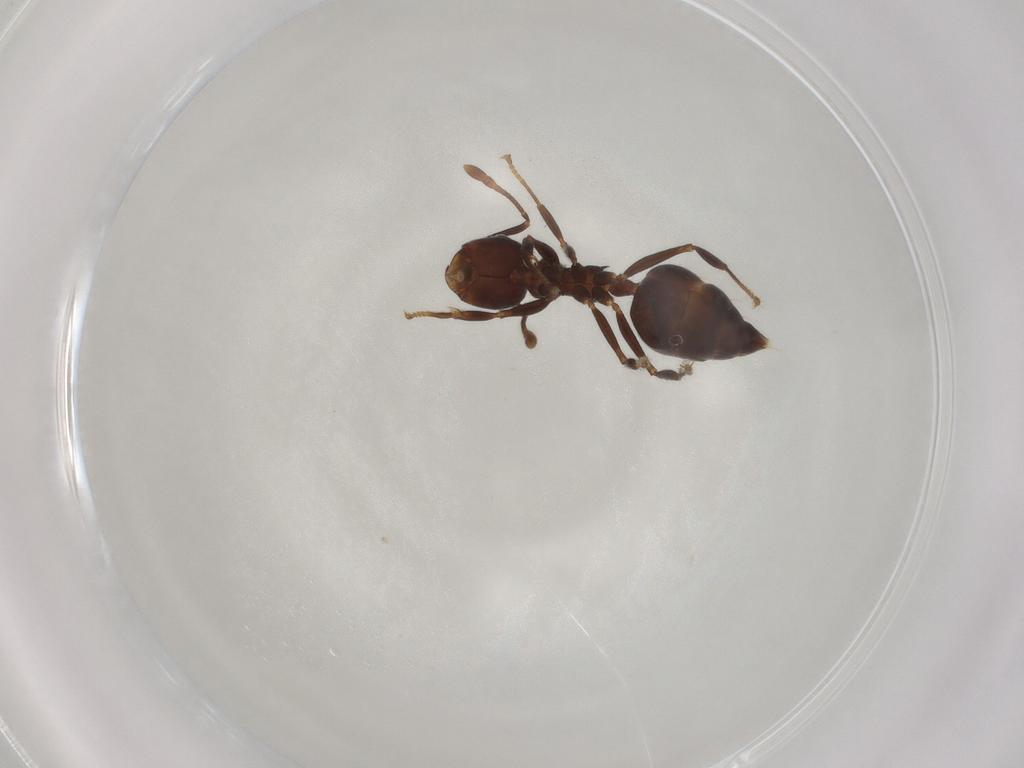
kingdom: Animalia
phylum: Arthropoda
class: Insecta
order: Hymenoptera
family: Formicidae
